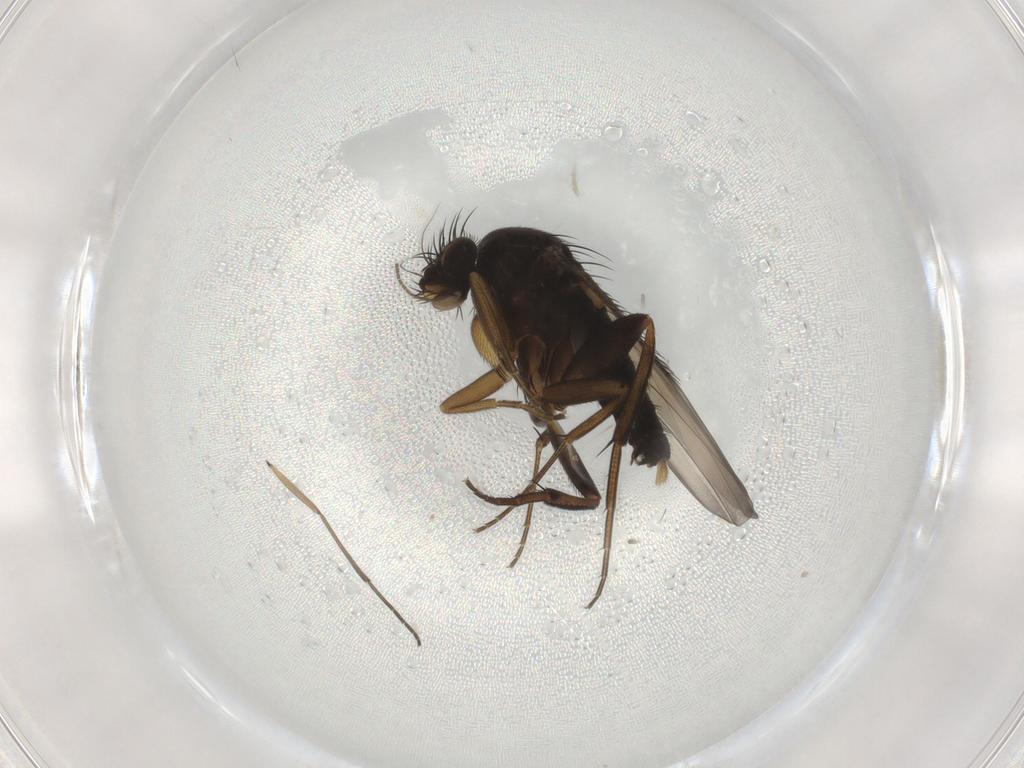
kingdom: Animalia
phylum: Arthropoda
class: Insecta
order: Diptera
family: Phoridae
